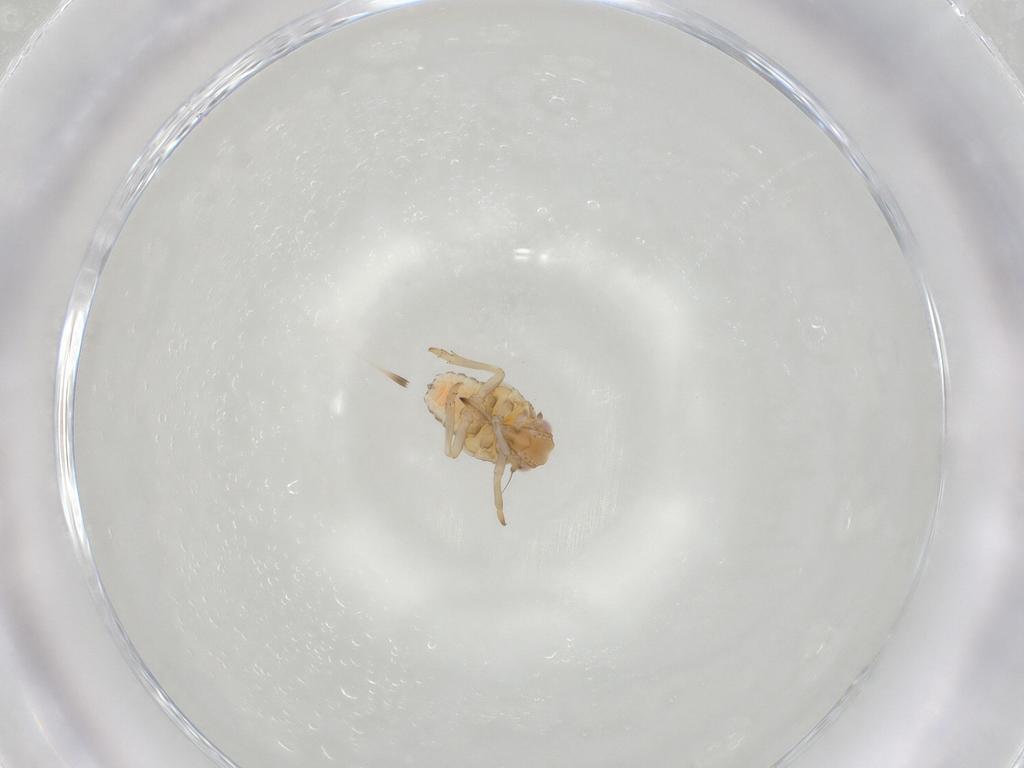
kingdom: Animalia
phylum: Arthropoda
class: Insecta
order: Hemiptera
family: Tropiduchidae
